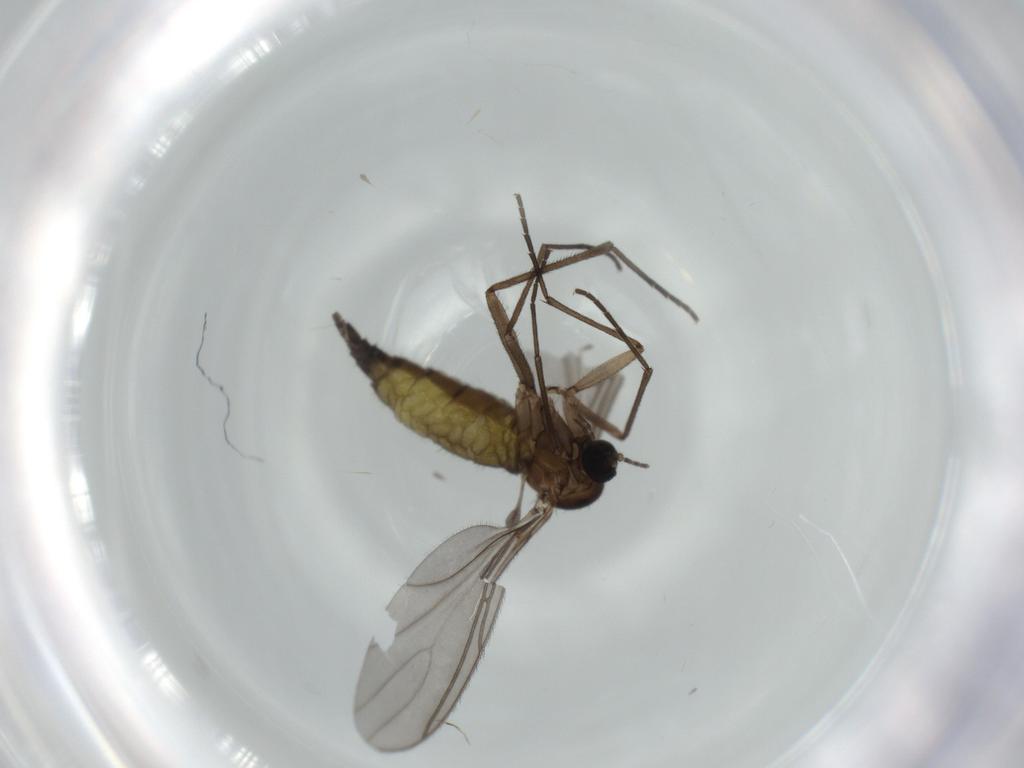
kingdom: Animalia
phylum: Arthropoda
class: Insecta
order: Diptera
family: Sciaridae
